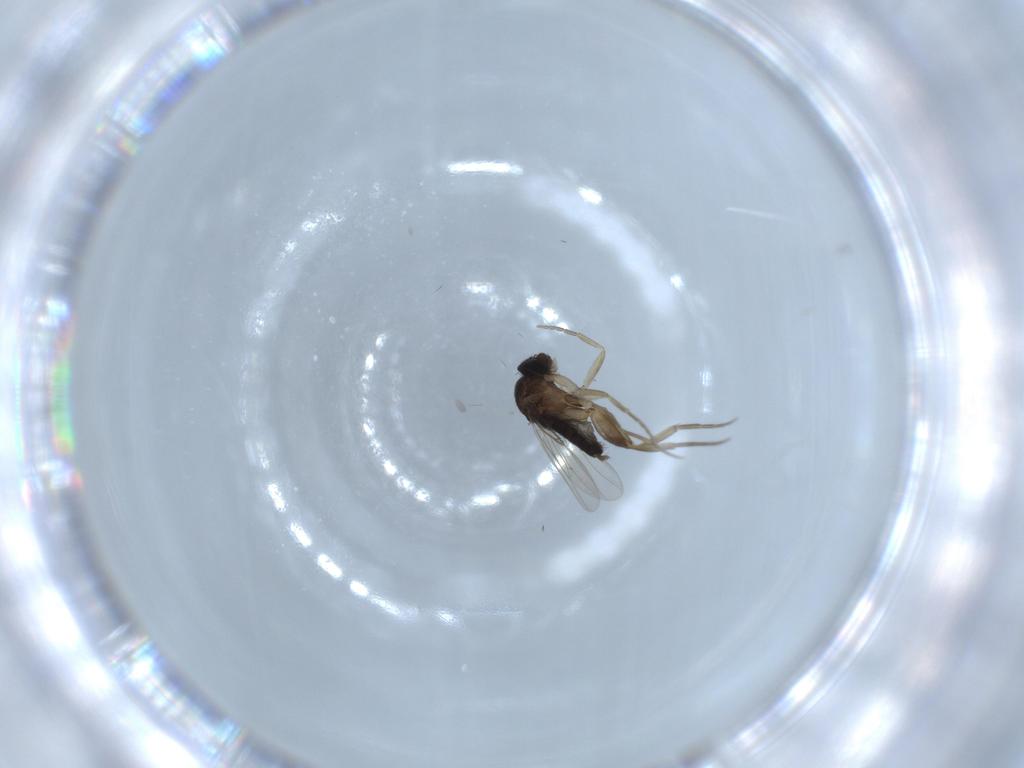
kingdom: Animalia
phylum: Arthropoda
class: Insecta
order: Diptera
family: Phoridae
